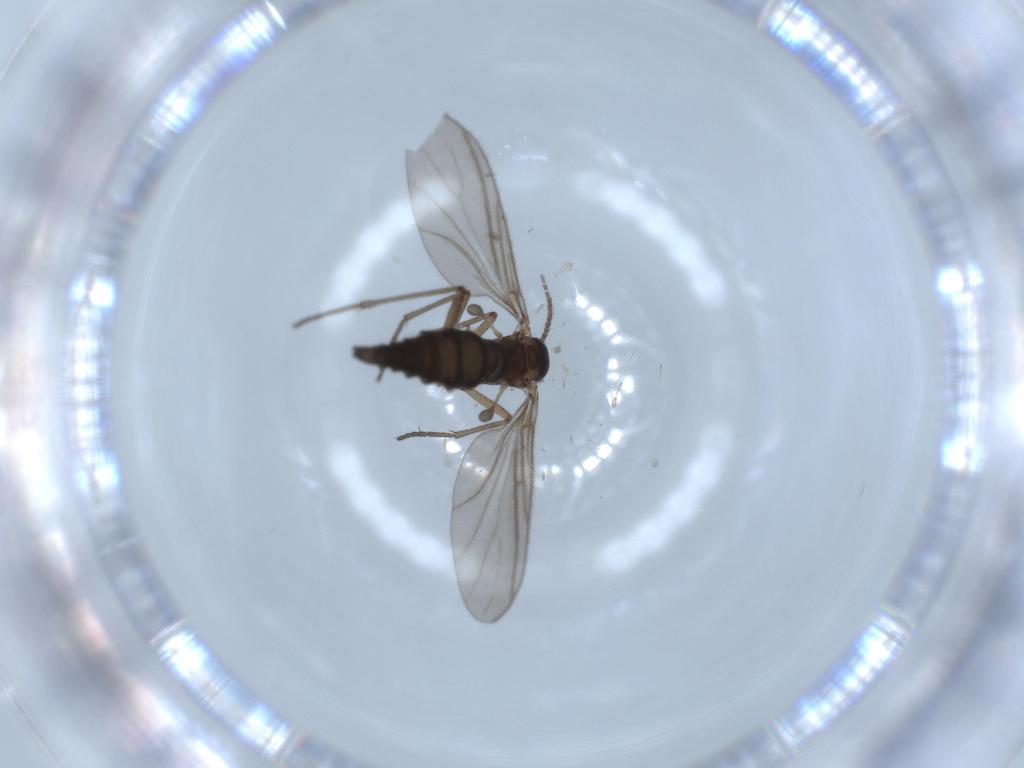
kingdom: Animalia
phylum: Arthropoda
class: Insecta
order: Diptera
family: Sciaridae
